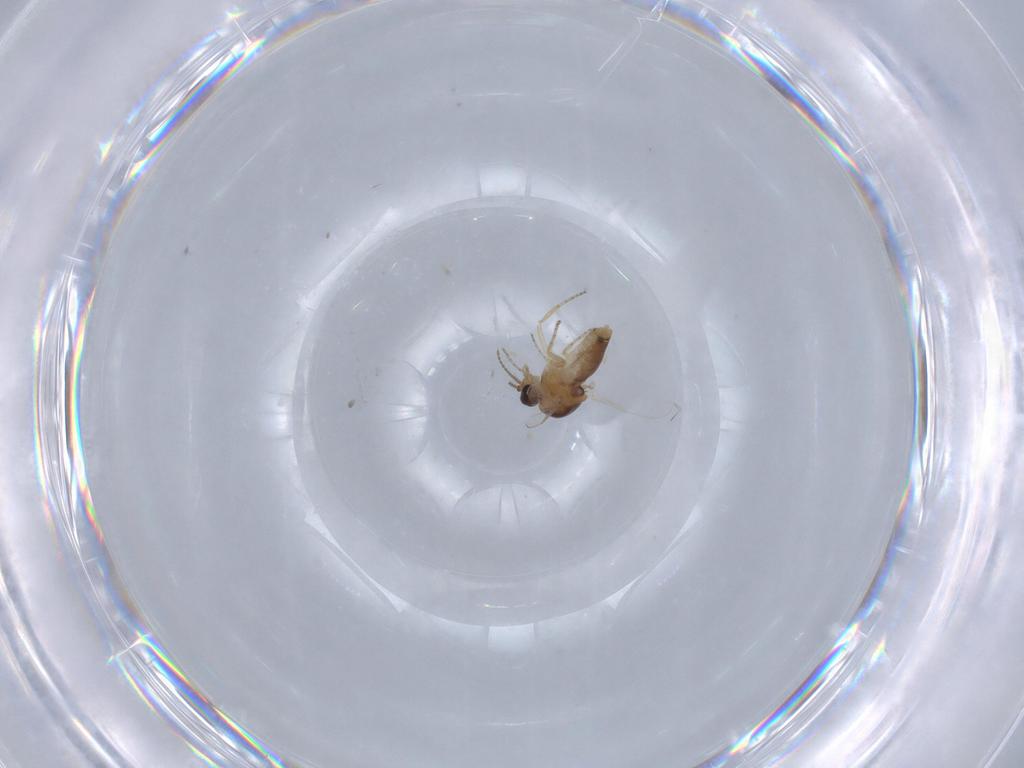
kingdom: Animalia
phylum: Arthropoda
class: Insecta
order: Diptera
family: Ceratopogonidae
